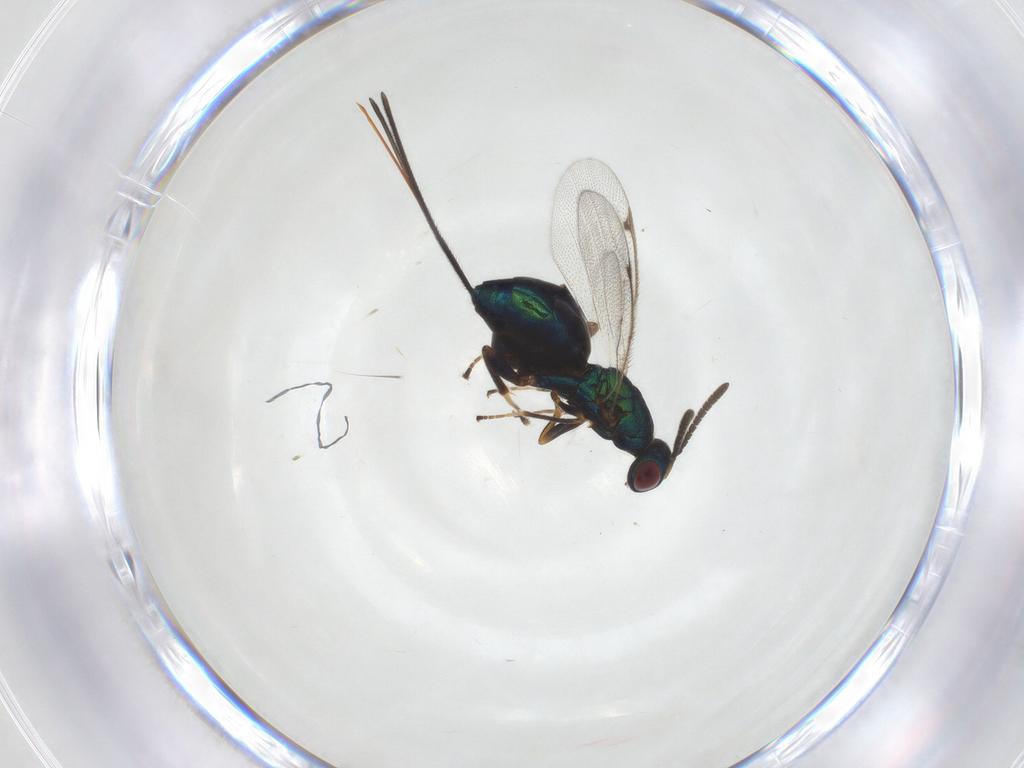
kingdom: Animalia
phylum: Arthropoda
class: Insecta
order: Hymenoptera
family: Torymidae
